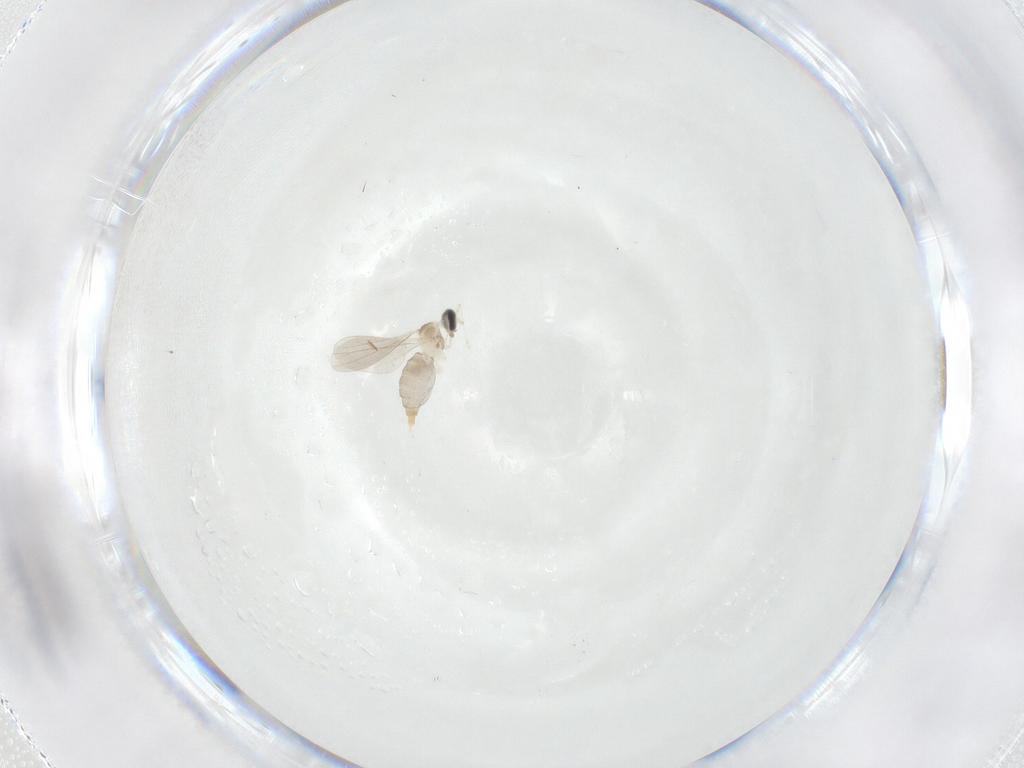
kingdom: Animalia
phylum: Arthropoda
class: Insecta
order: Diptera
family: Cecidomyiidae
